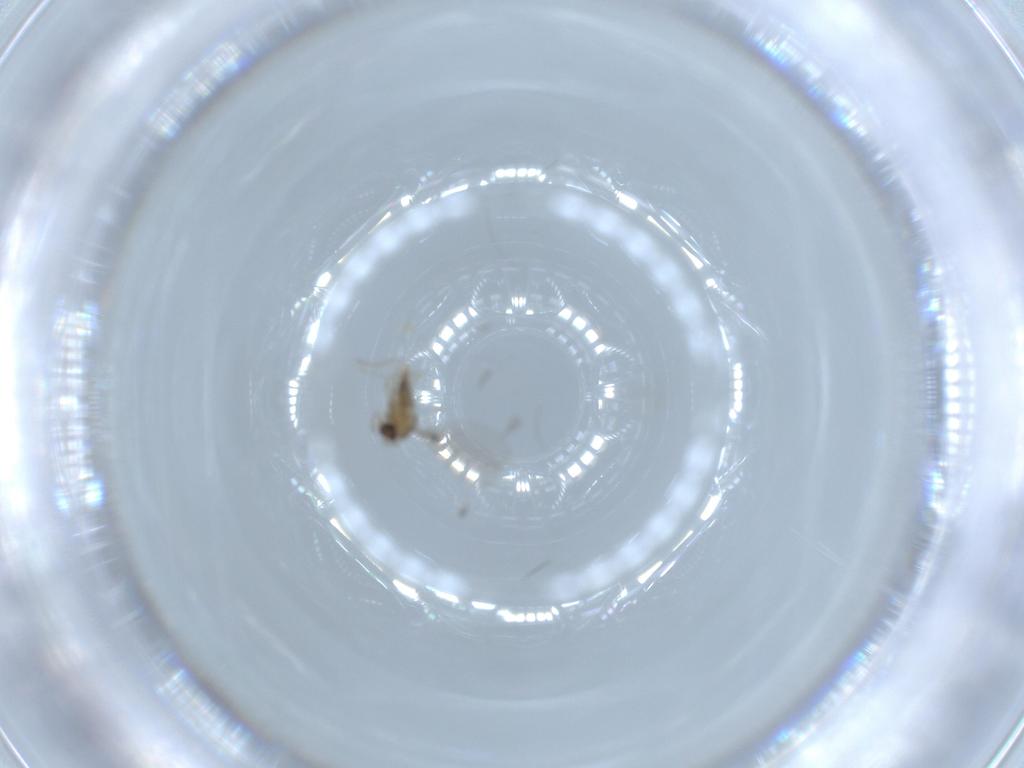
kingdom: Animalia
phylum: Arthropoda
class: Insecta
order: Diptera
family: Cecidomyiidae
